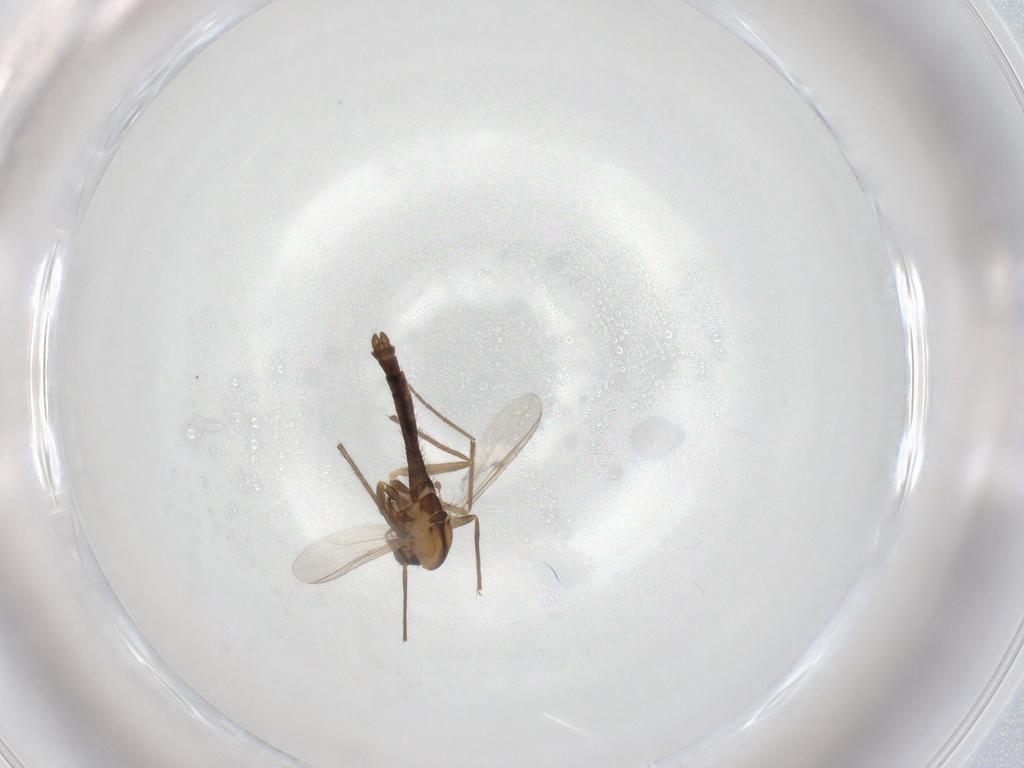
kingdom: Animalia
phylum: Arthropoda
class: Insecta
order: Diptera
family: Chironomidae
